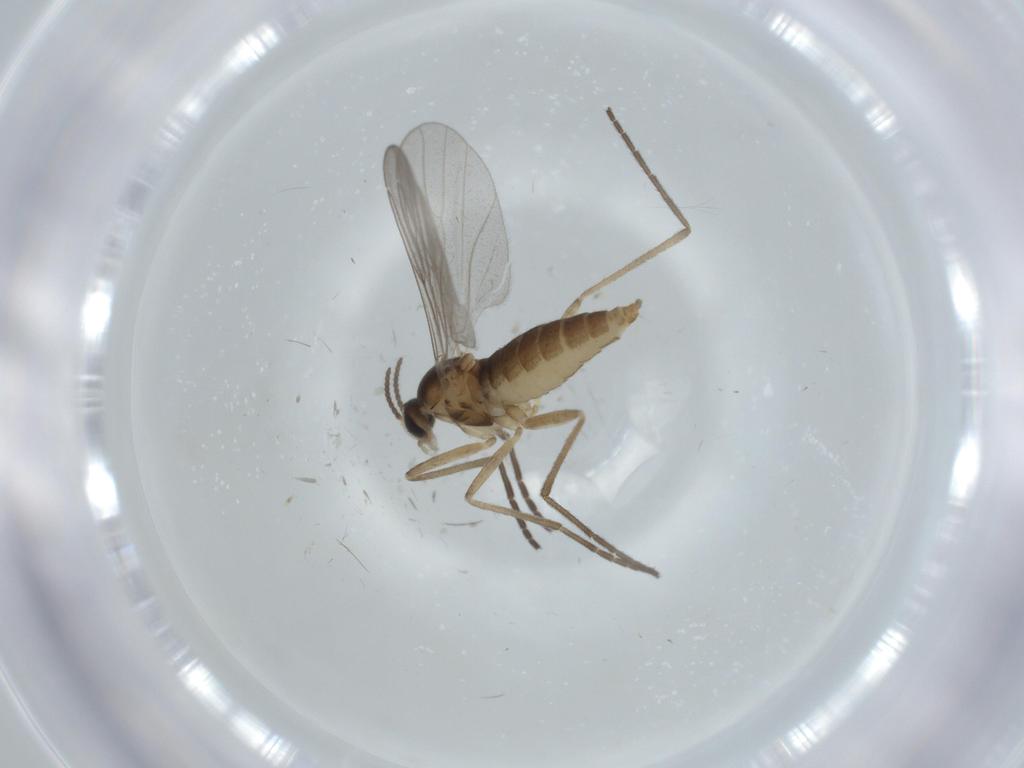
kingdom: Animalia
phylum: Arthropoda
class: Insecta
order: Diptera
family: Cecidomyiidae
